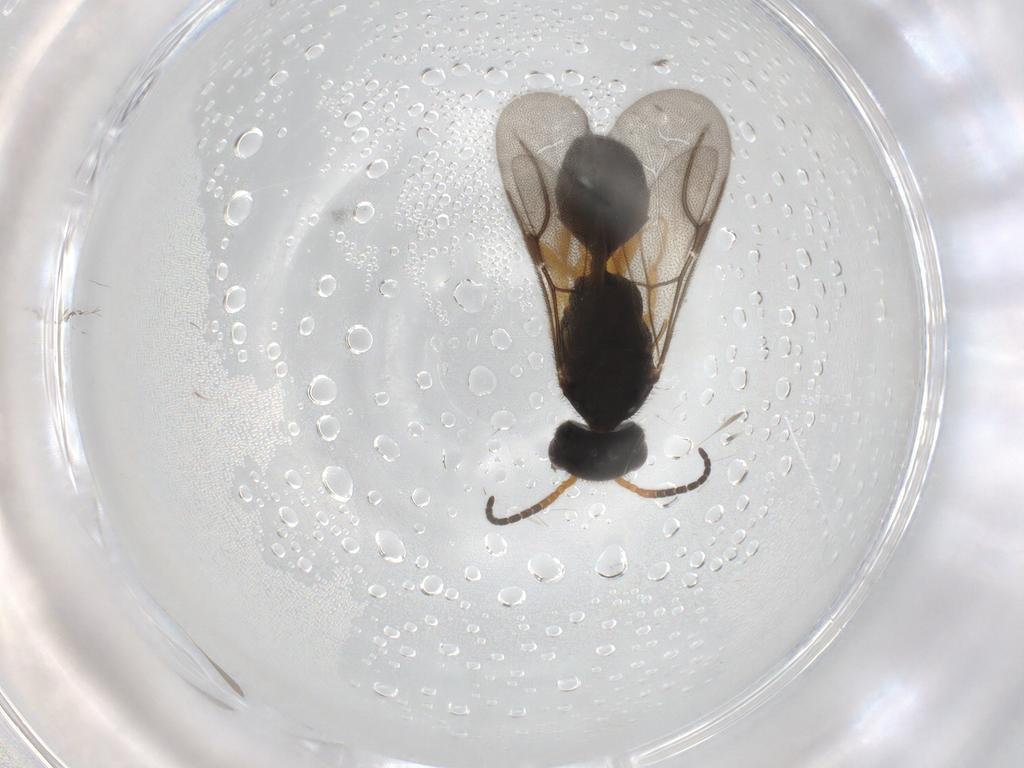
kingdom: Animalia
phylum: Arthropoda
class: Insecta
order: Hymenoptera
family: Bethylidae
